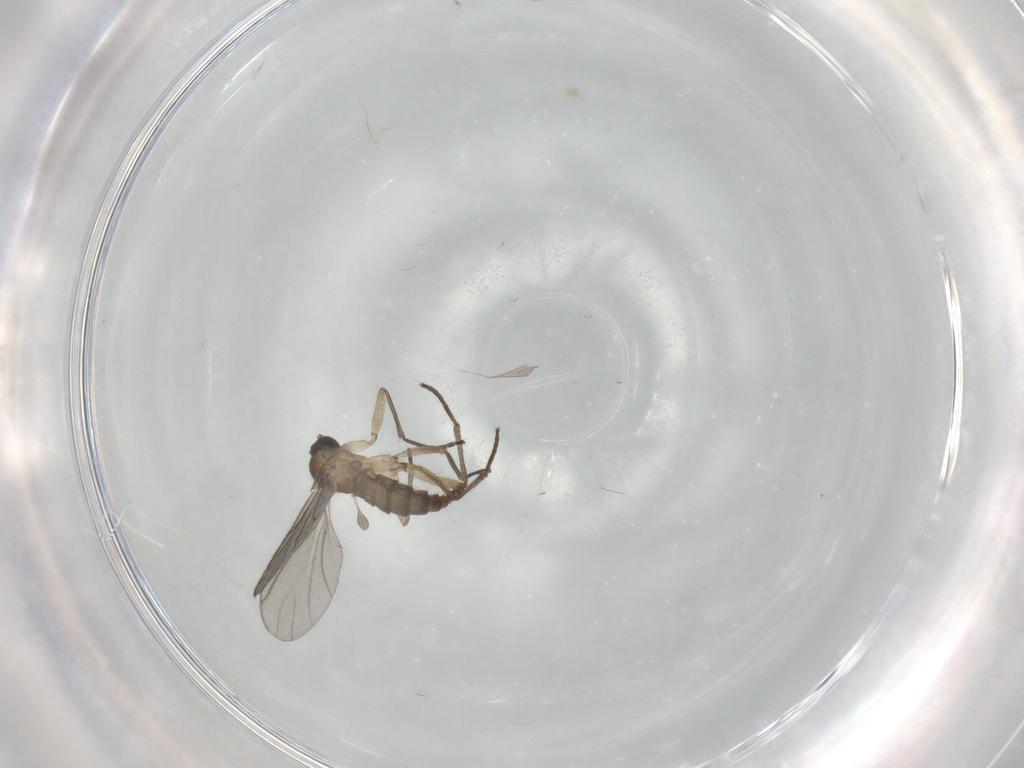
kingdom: Animalia
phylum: Arthropoda
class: Insecta
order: Diptera
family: Sciaridae
